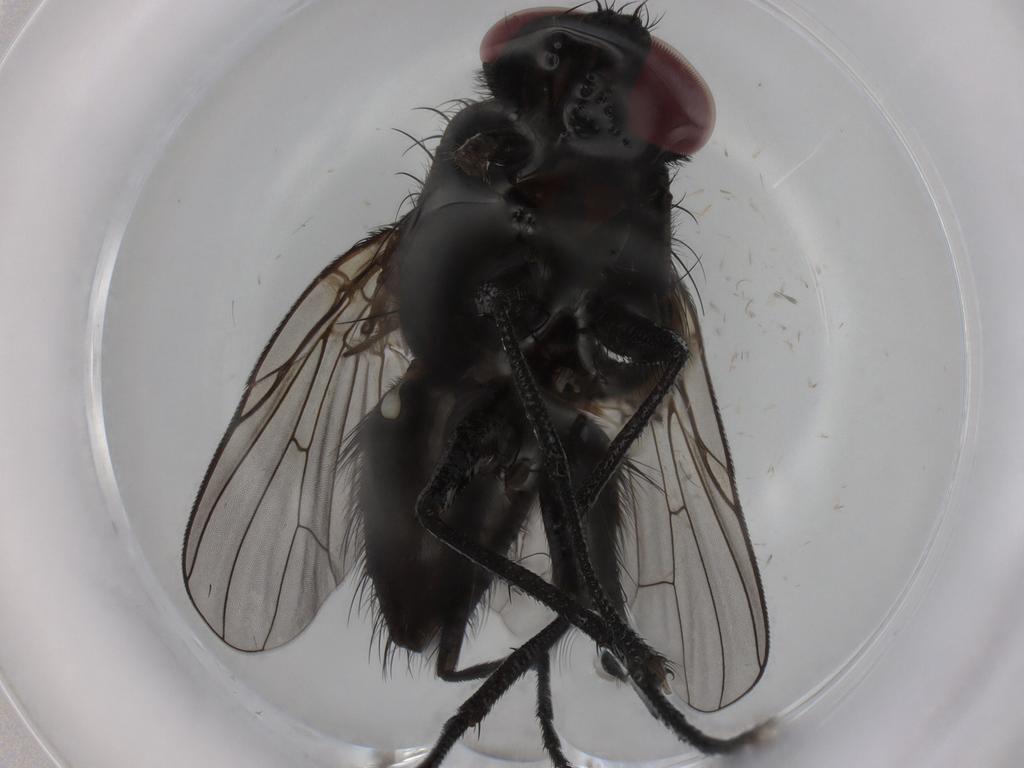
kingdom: Animalia
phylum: Arthropoda
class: Insecta
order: Diptera
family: Muscidae
